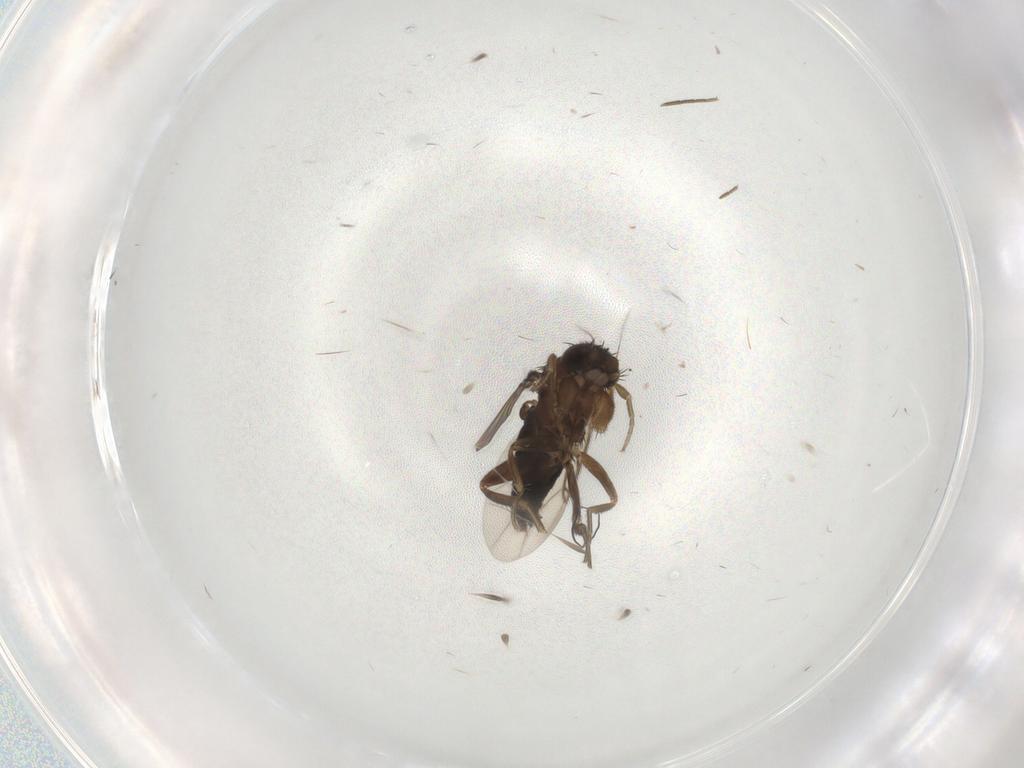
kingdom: Animalia
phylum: Arthropoda
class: Insecta
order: Diptera
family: Phoridae
